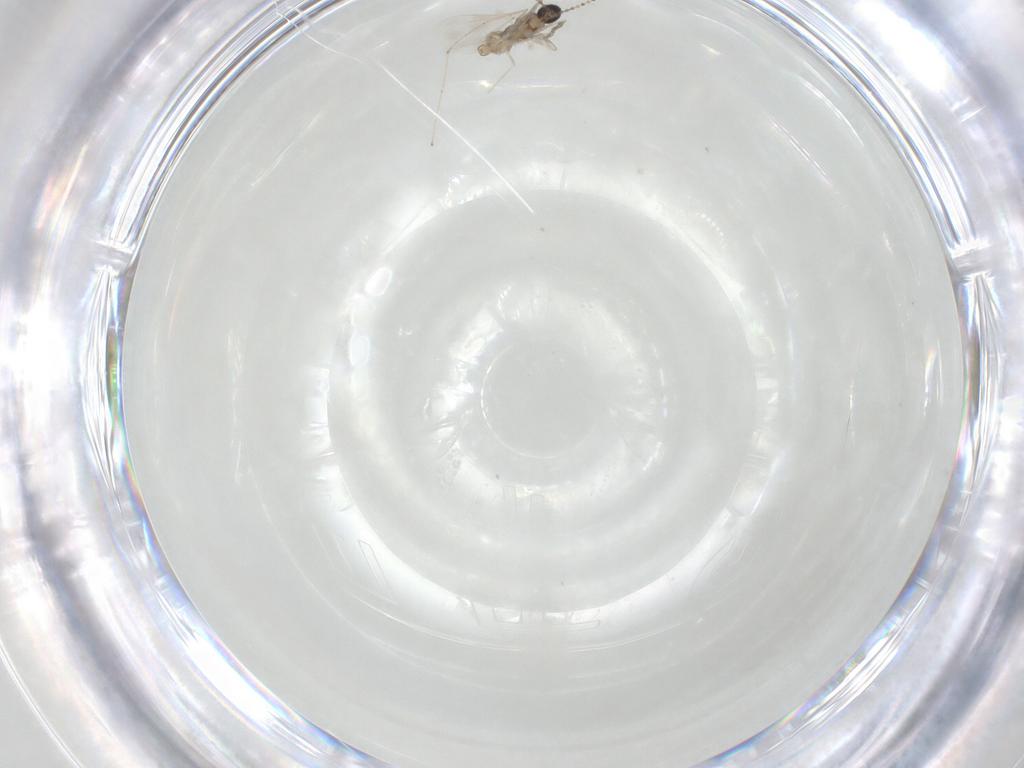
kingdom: Animalia
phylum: Arthropoda
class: Insecta
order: Diptera
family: Cecidomyiidae
